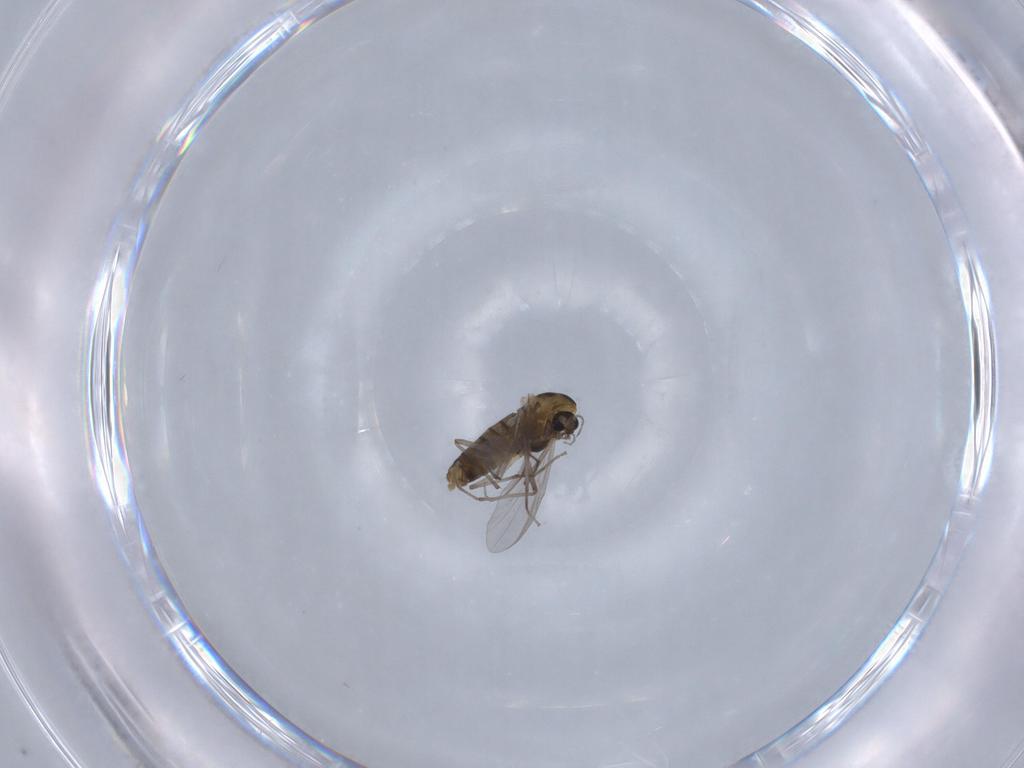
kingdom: Animalia
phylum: Arthropoda
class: Insecta
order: Diptera
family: Chironomidae
